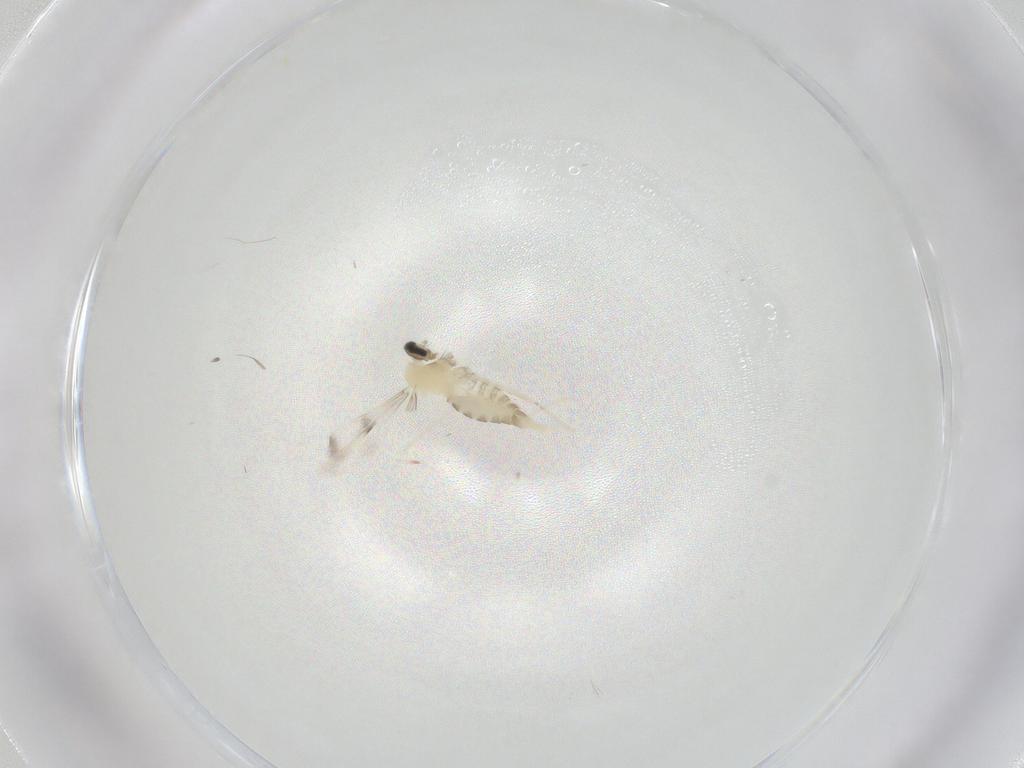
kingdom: Animalia
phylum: Arthropoda
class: Insecta
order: Diptera
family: Cecidomyiidae
